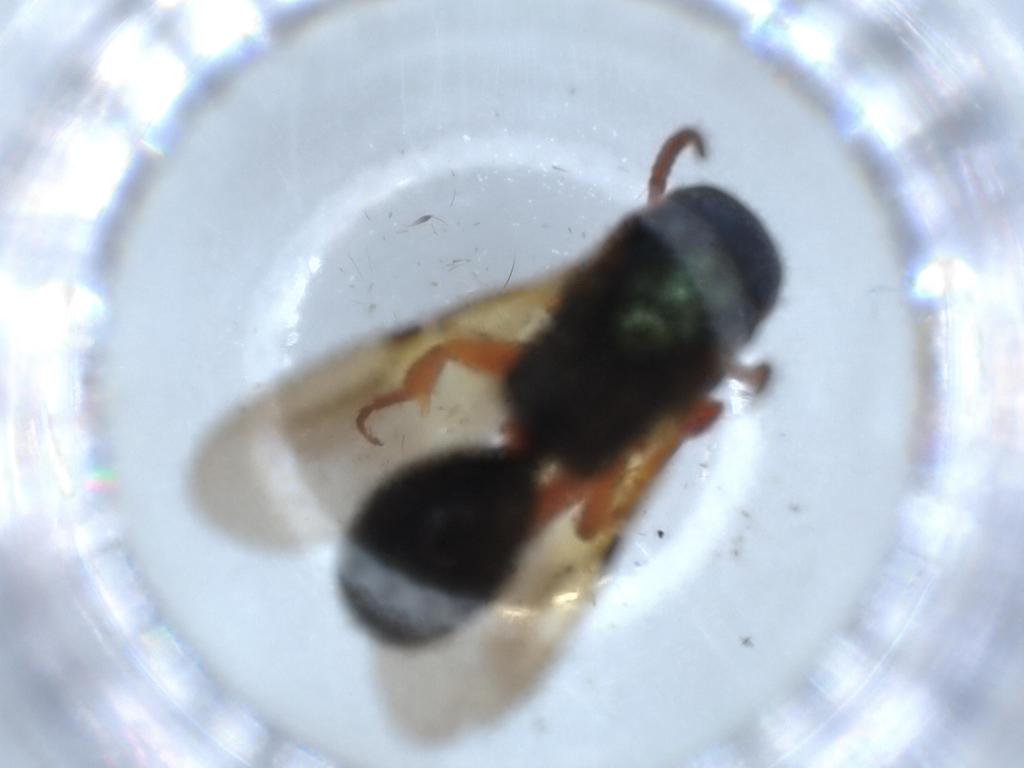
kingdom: Animalia
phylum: Arthropoda
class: Insecta
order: Hymenoptera
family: Bethylidae
